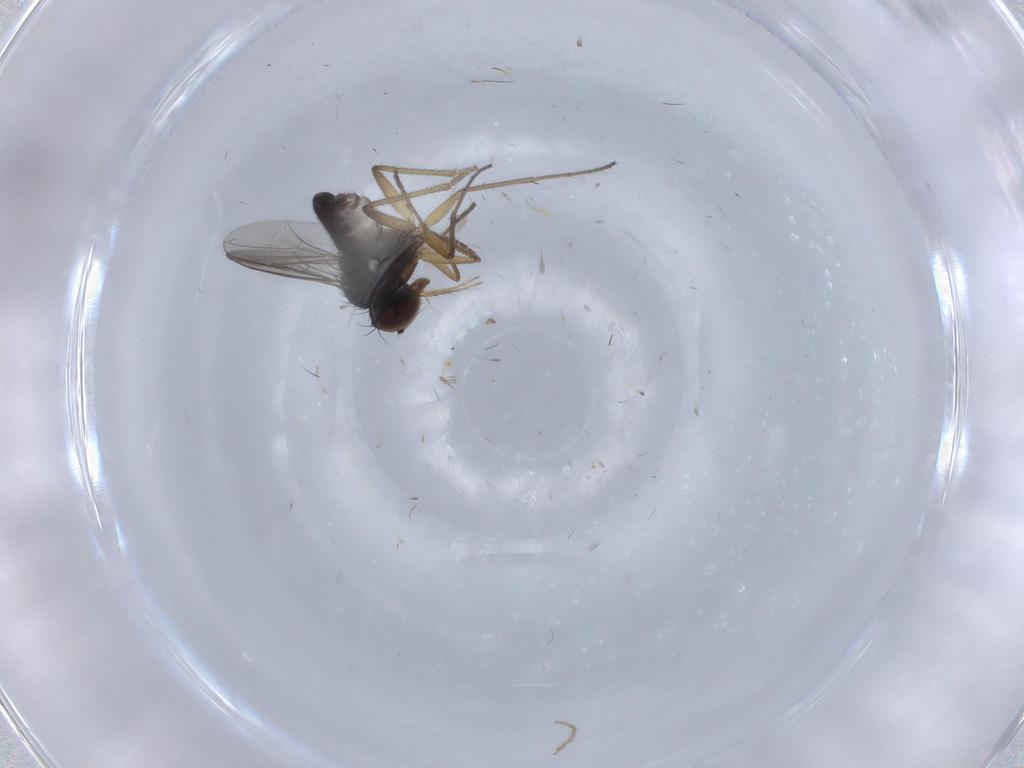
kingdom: Animalia
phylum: Arthropoda
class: Insecta
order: Diptera
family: Dolichopodidae
